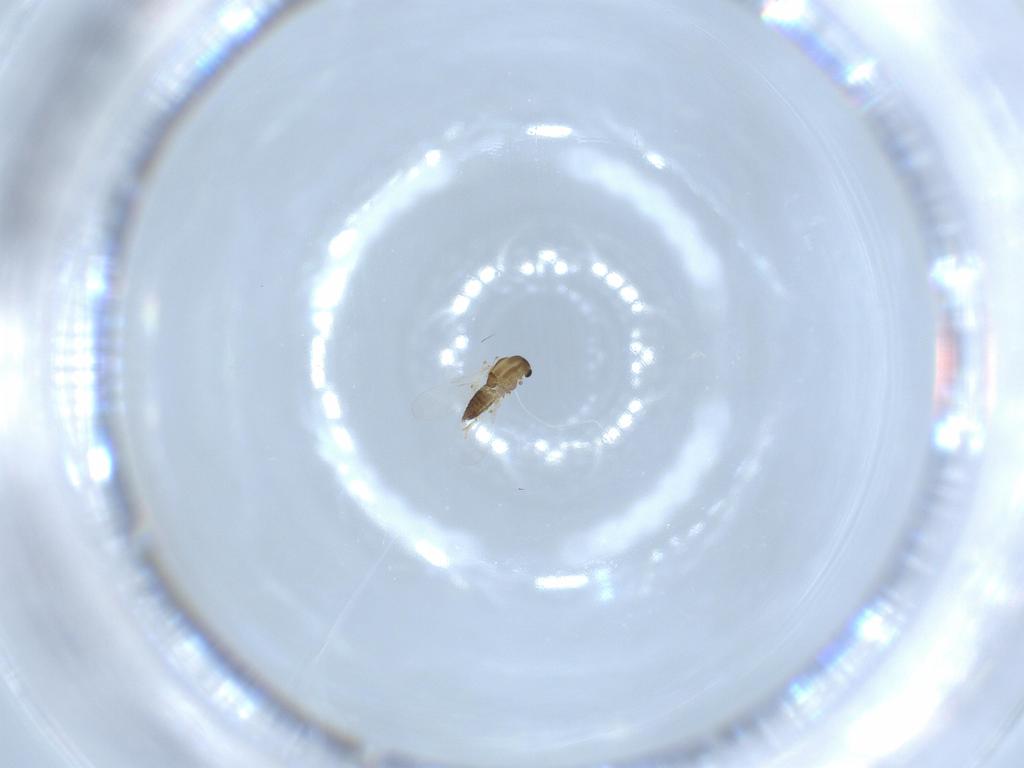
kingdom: Animalia
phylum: Arthropoda
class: Insecta
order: Diptera
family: Chironomidae
